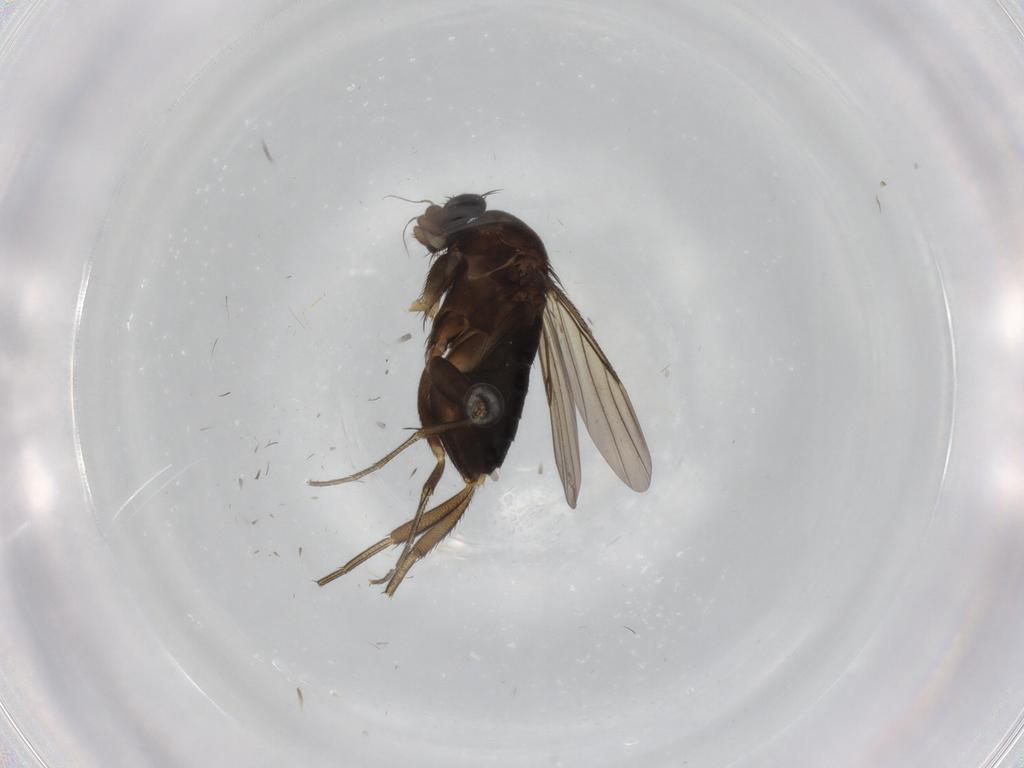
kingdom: Animalia
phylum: Arthropoda
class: Insecta
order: Diptera
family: Phoridae
